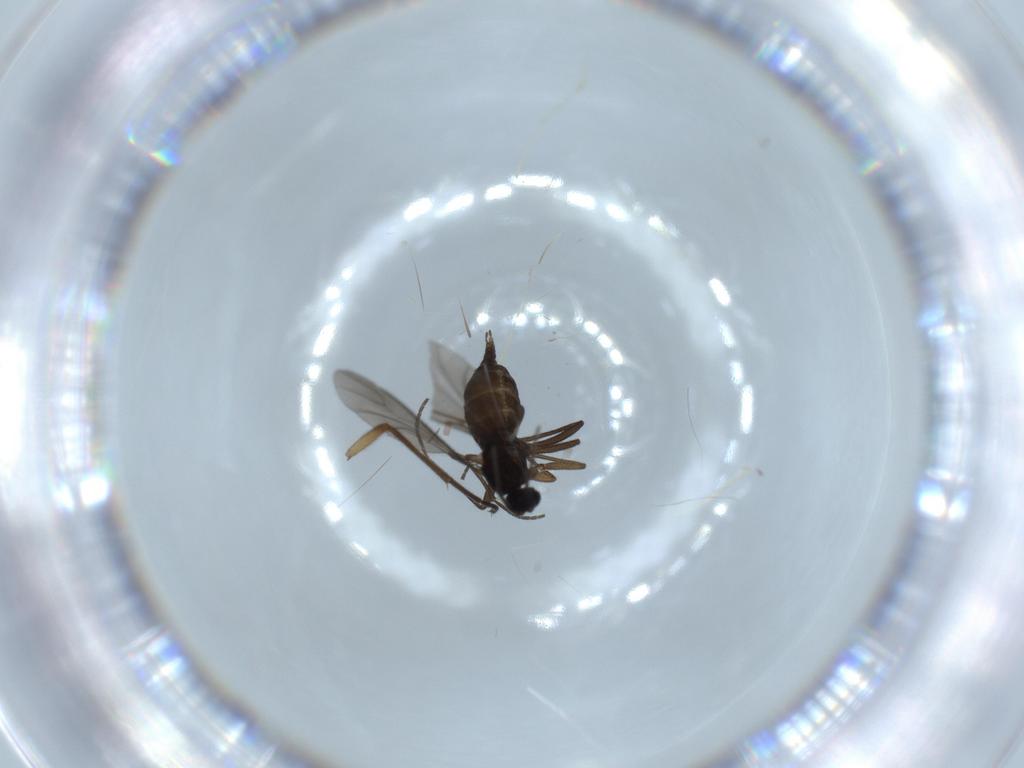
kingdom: Animalia
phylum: Arthropoda
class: Insecta
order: Diptera
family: Sciaridae
